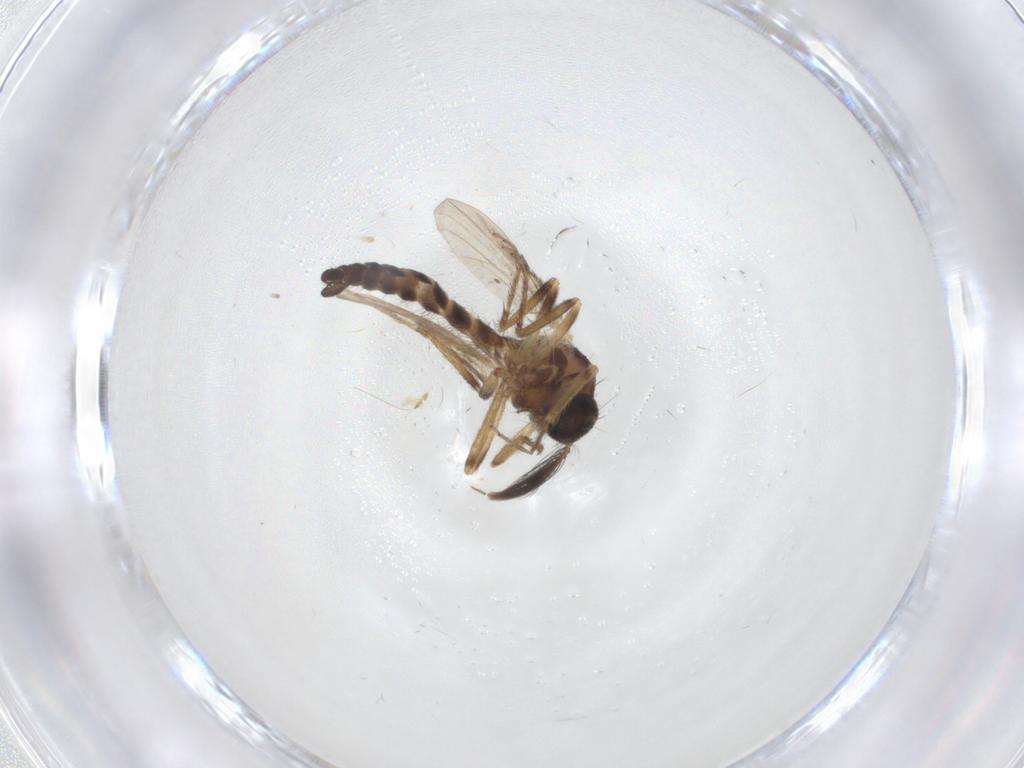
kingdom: Animalia
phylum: Arthropoda
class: Insecta
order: Diptera
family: Ceratopogonidae
